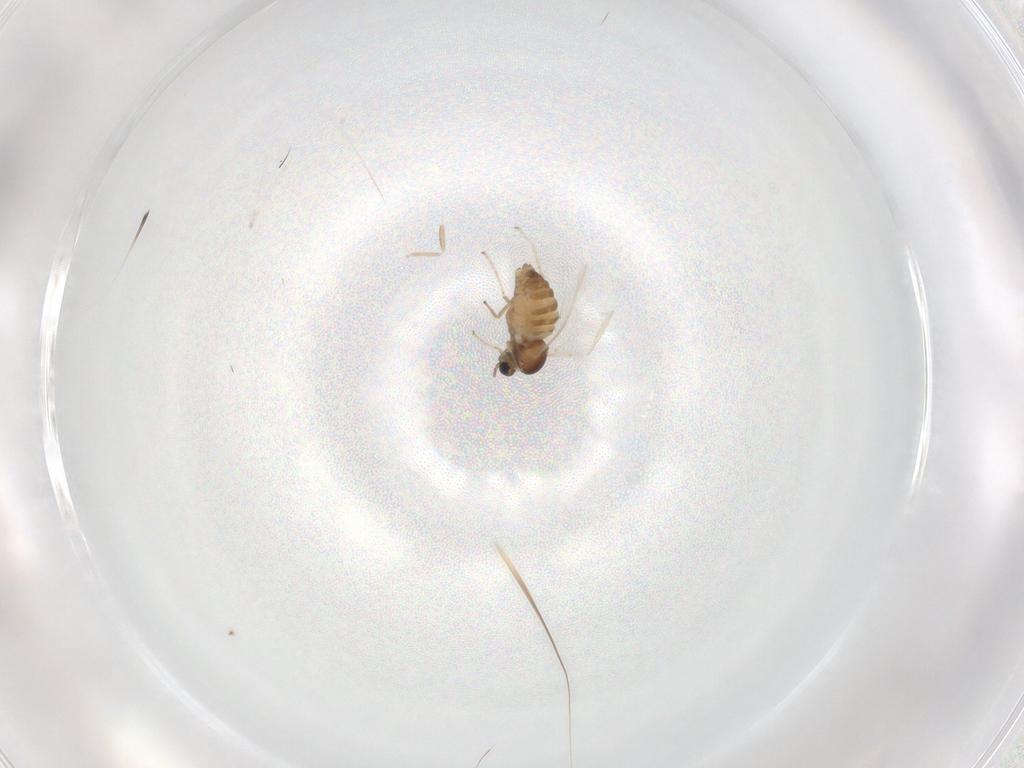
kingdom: Animalia
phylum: Arthropoda
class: Insecta
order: Diptera
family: Cecidomyiidae
